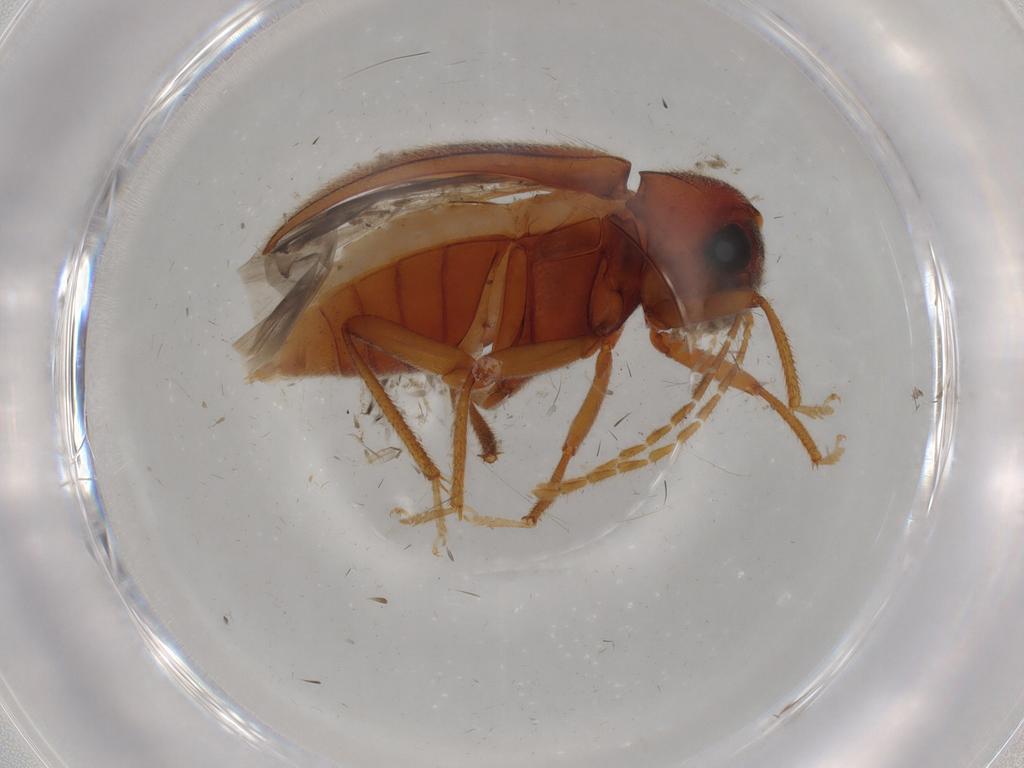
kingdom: Animalia
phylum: Arthropoda
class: Insecta
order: Coleoptera
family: Ptilodactylidae
